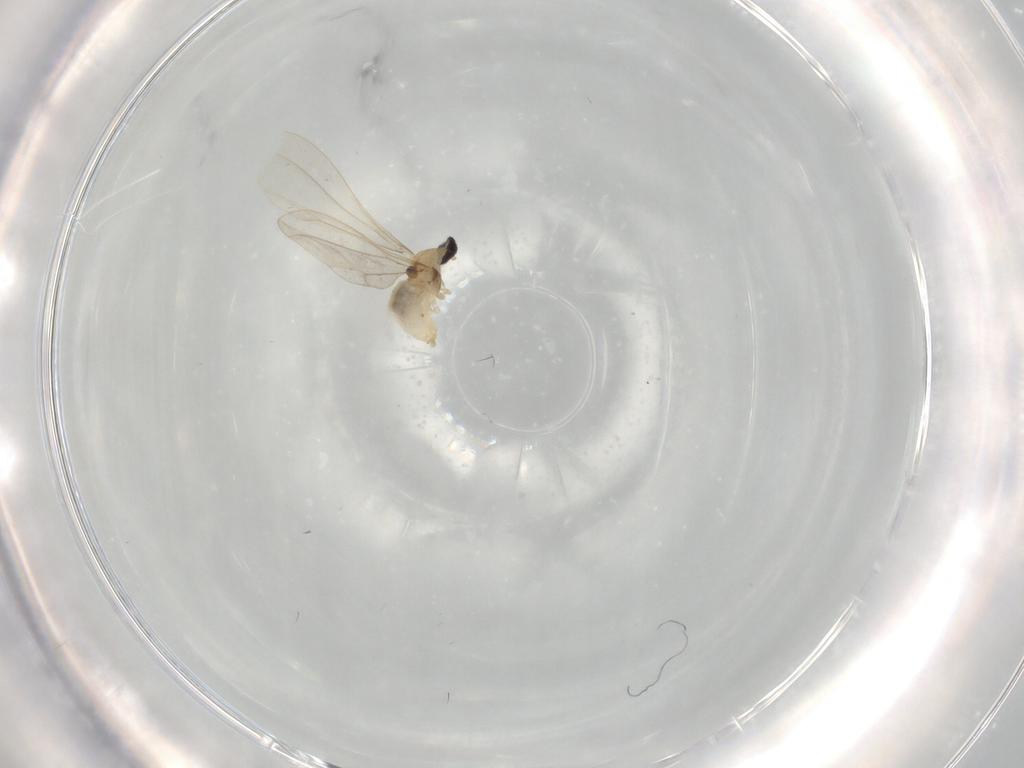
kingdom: Animalia
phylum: Arthropoda
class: Insecta
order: Diptera
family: Cecidomyiidae
